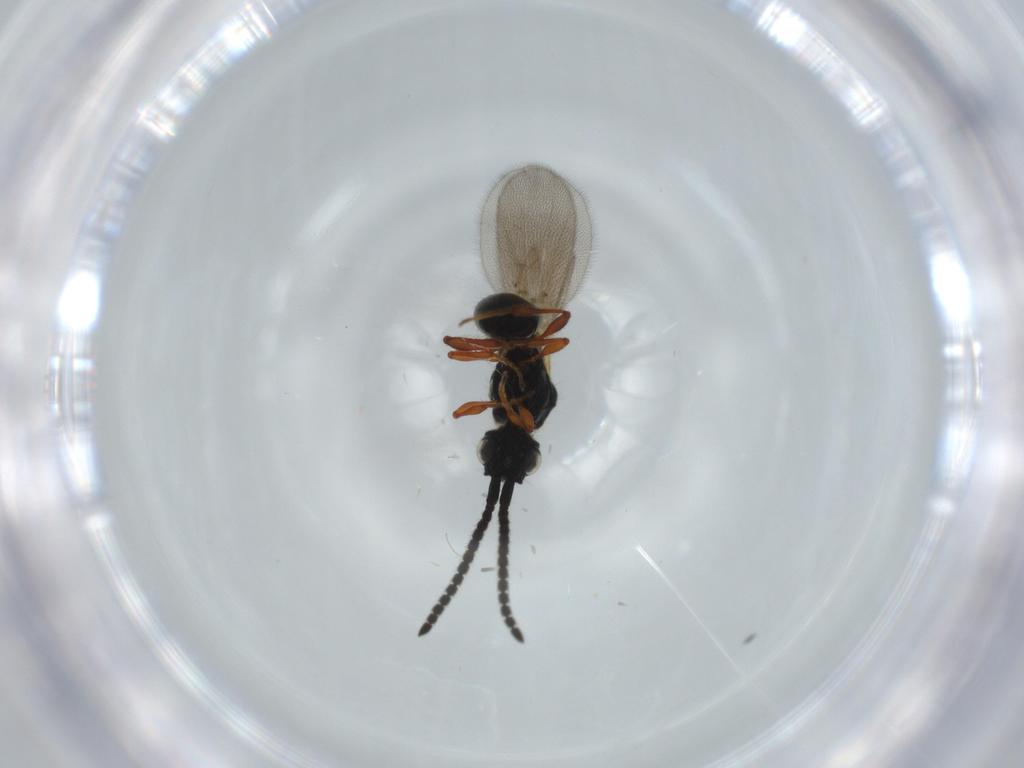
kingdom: Animalia
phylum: Arthropoda
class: Insecta
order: Hymenoptera
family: Diapriidae
